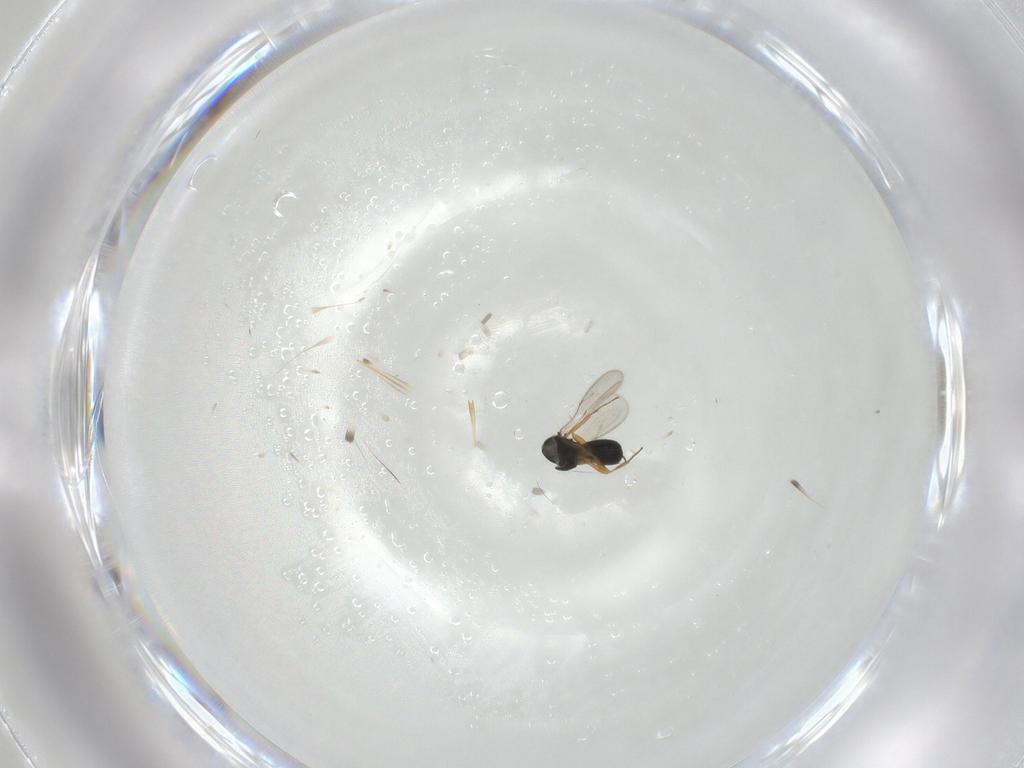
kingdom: Animalia
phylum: Arthropoda
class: Insecta
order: Hymenoptera
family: Scelionidae
